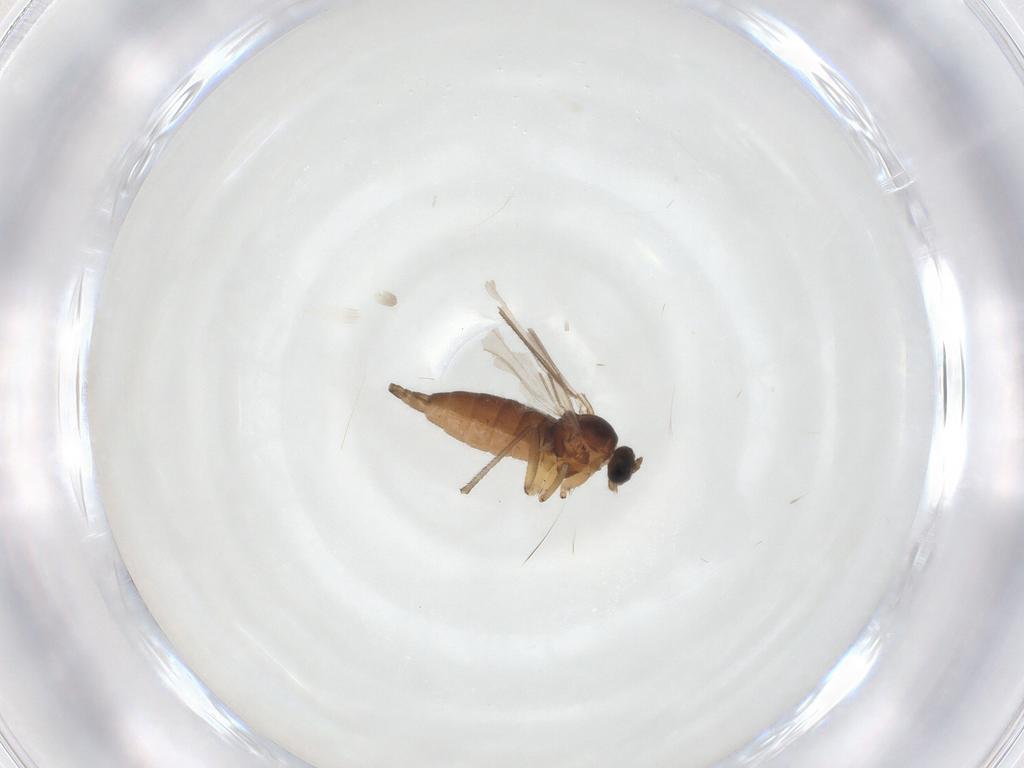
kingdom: Animalia
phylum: Arthropoda
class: Insecta
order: Diptera
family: Sciaridae
